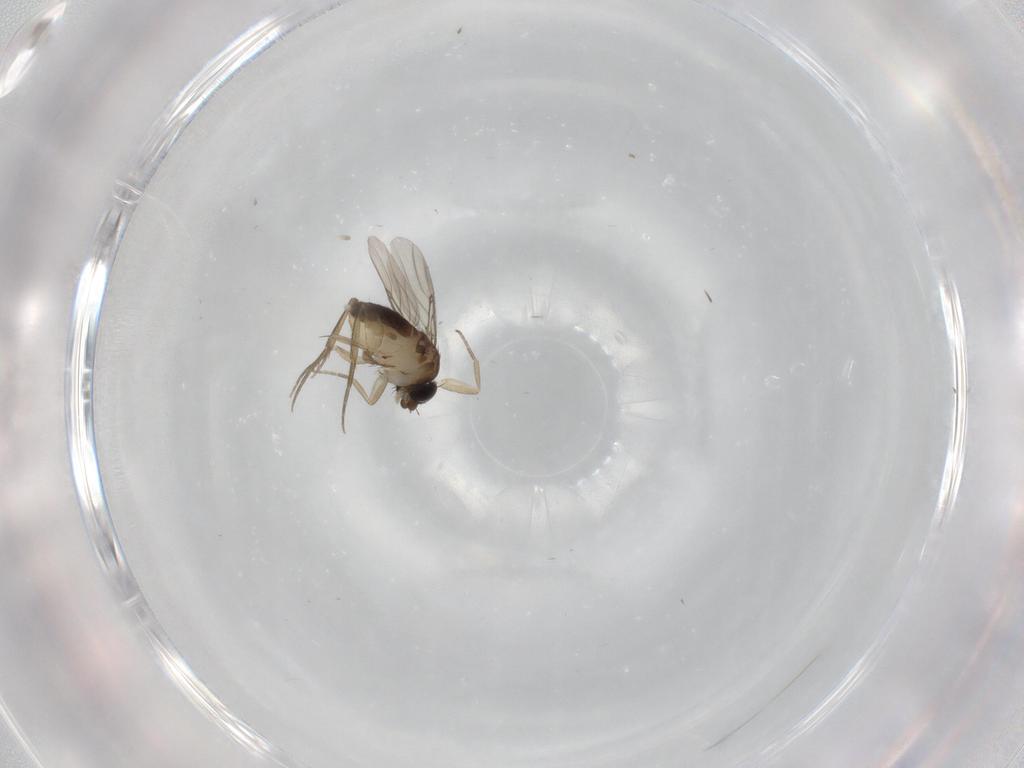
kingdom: Animalia
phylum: Arthropoda
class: Insecta
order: Diptera
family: Phoridae
